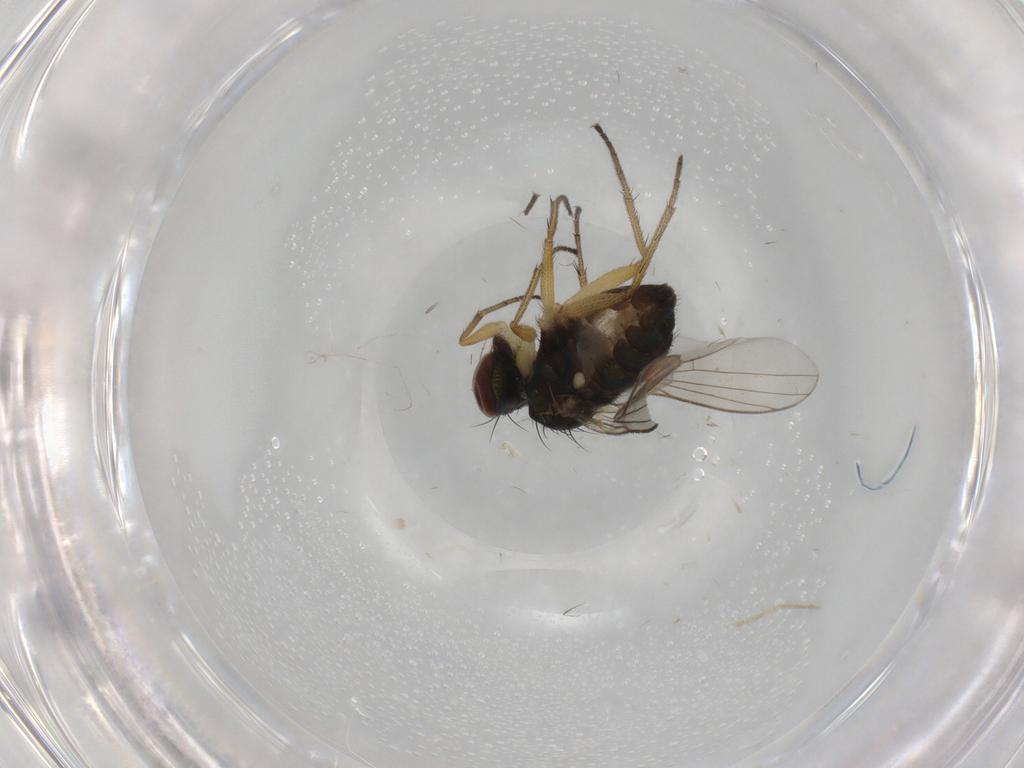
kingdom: Animalia
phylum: Arthropoda
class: Insecta
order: Diptera
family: Dolichopodidae
